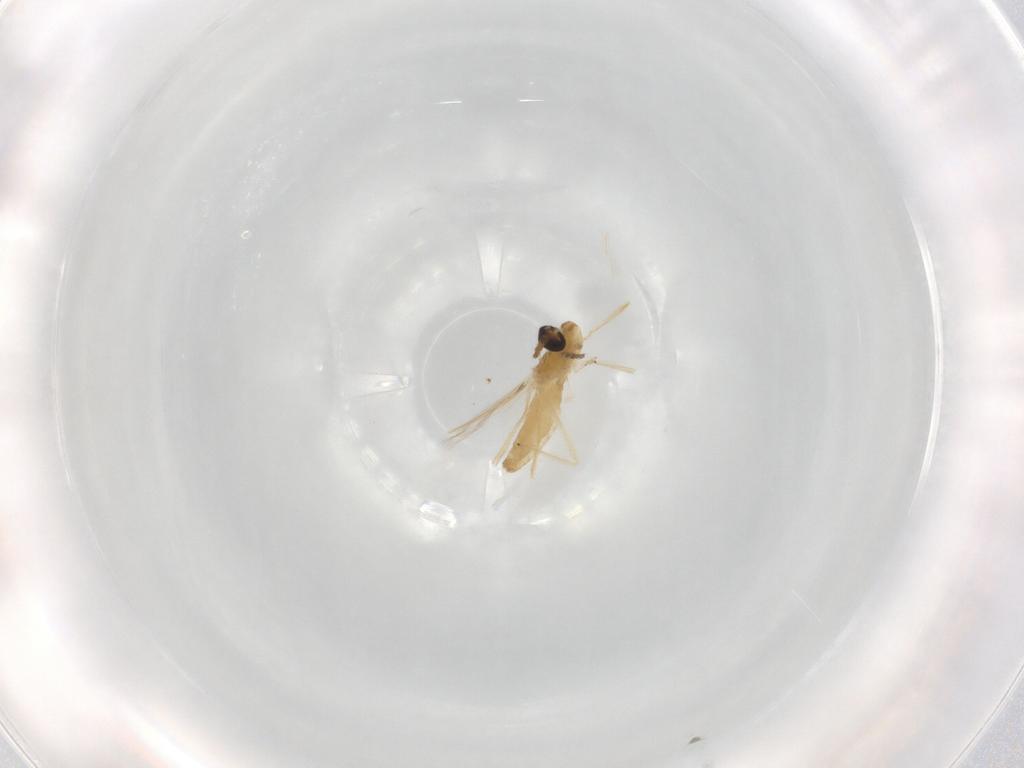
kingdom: Animalia
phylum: Arthropoda
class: Insecta
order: Diptera
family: Chironomidae
